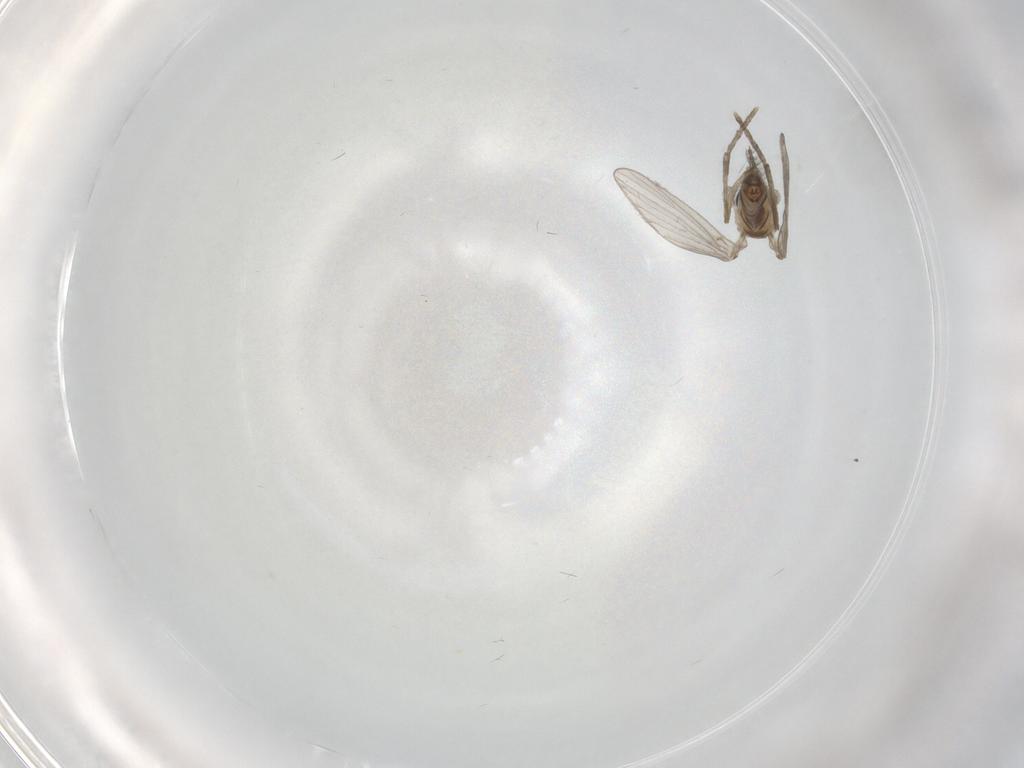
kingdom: Animalia
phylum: Arthropoda
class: Insecta
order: Diptera
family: Psychodidae
